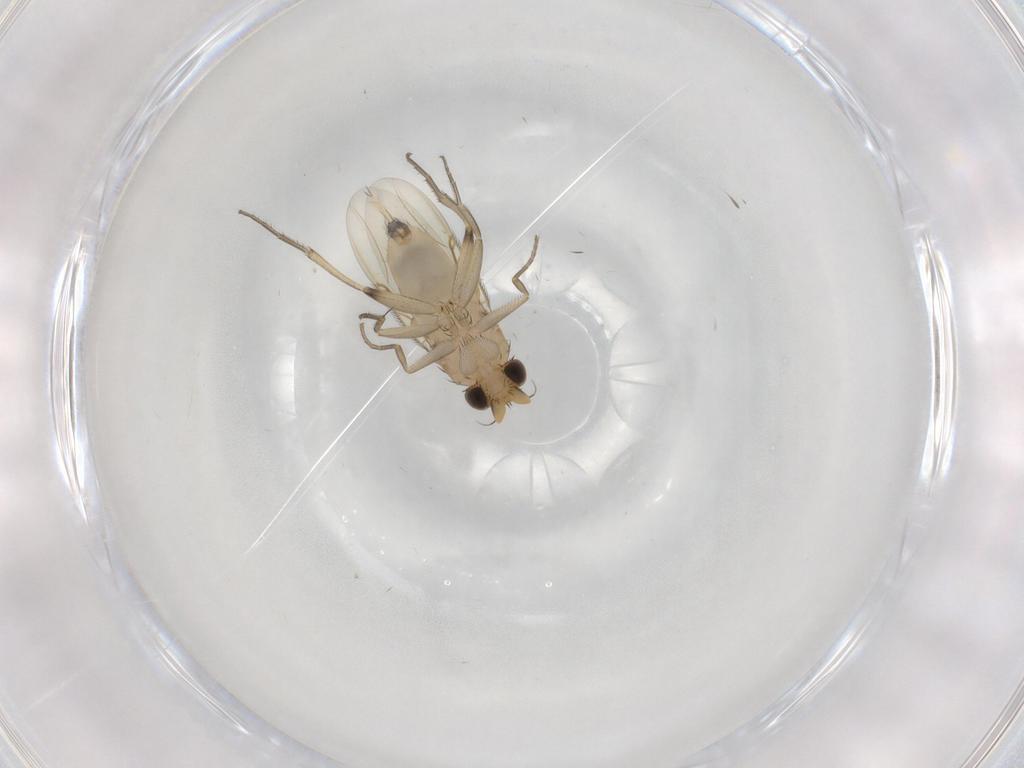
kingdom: Animalia
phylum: Arthropoda
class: Insecta
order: Diptera
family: Phoridae
